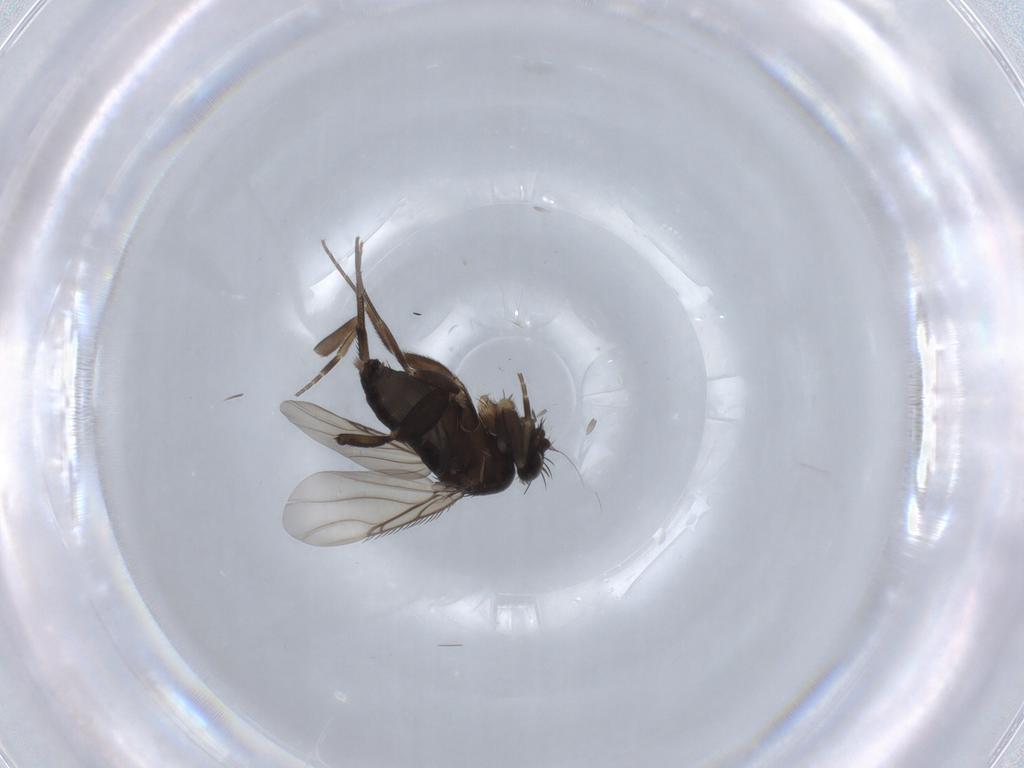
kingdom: Animalia
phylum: Arthropoda
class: Insecta
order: Diptera
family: Phoridae
